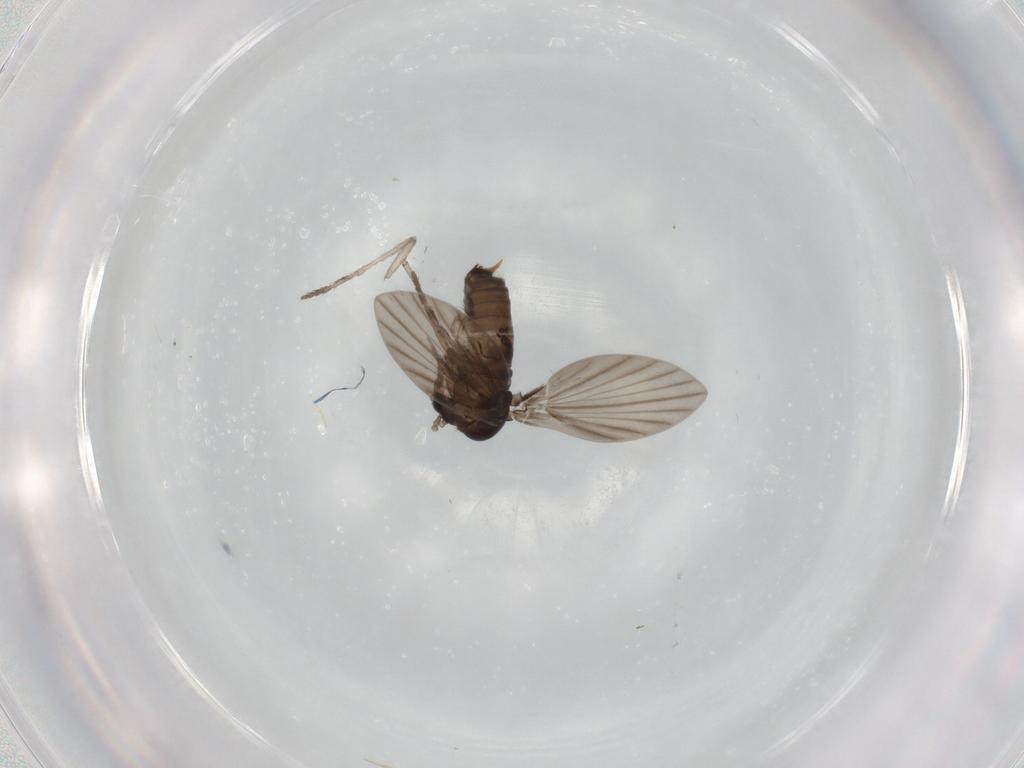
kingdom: Animalia
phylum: Arthropoda
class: Insecta
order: Diptera
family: Psychodidae
